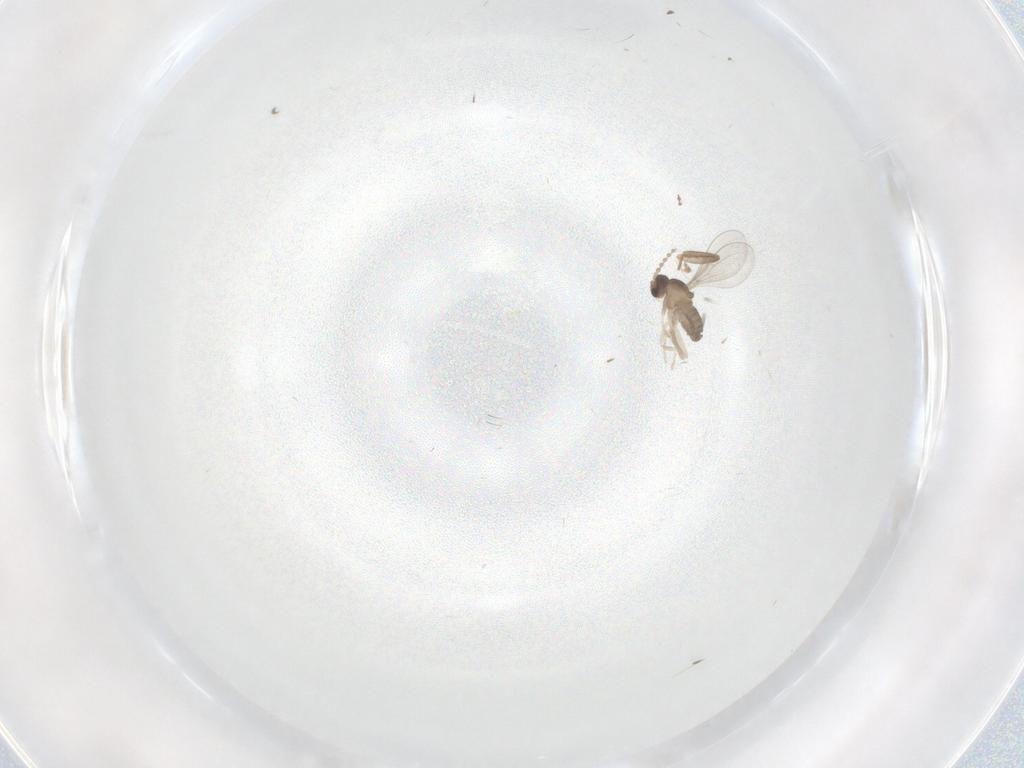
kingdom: Animalia
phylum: Arthropoda
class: Insecta
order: Diptera
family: Cecidomyiidae
